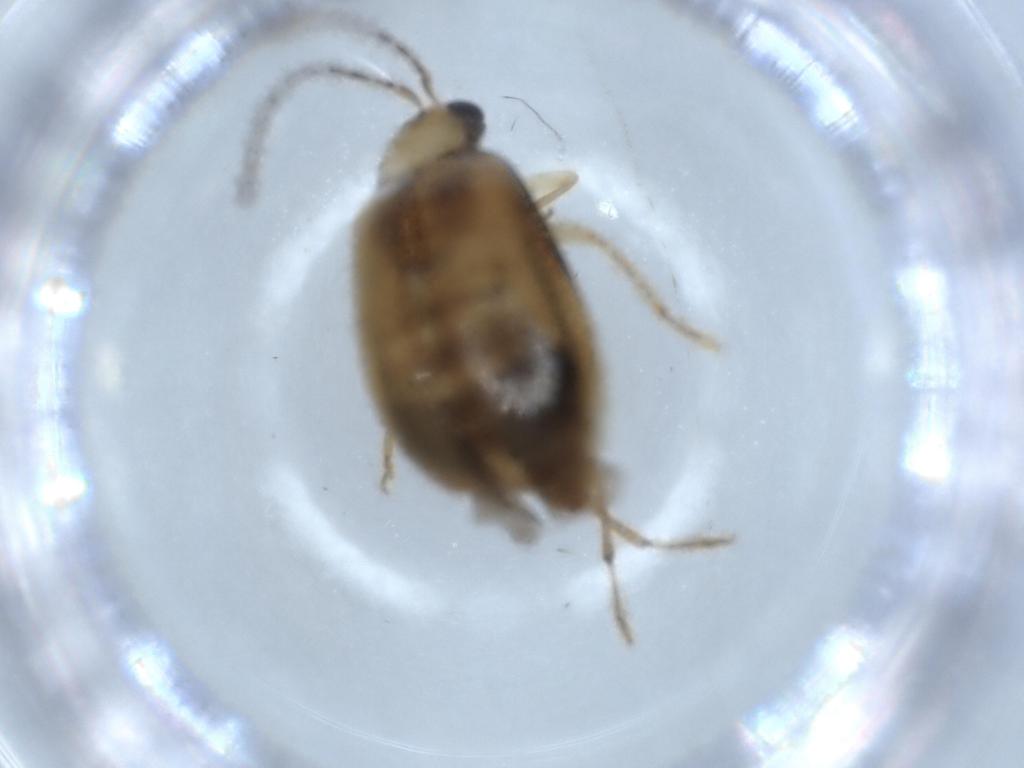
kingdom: Animalia
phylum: Arthropoda
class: Insecta
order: Coleoptera
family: Chrysomelidae
